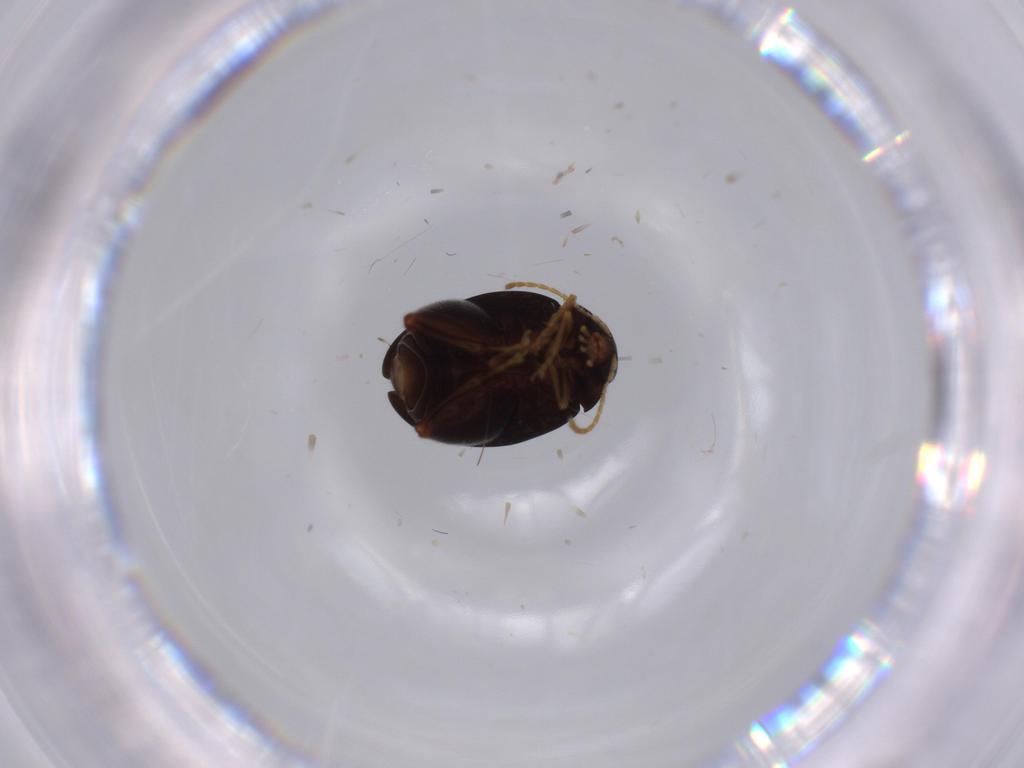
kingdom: Animalia
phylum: Arthropoda
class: Insecta
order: Coleoptera
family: Chrysomelidae
